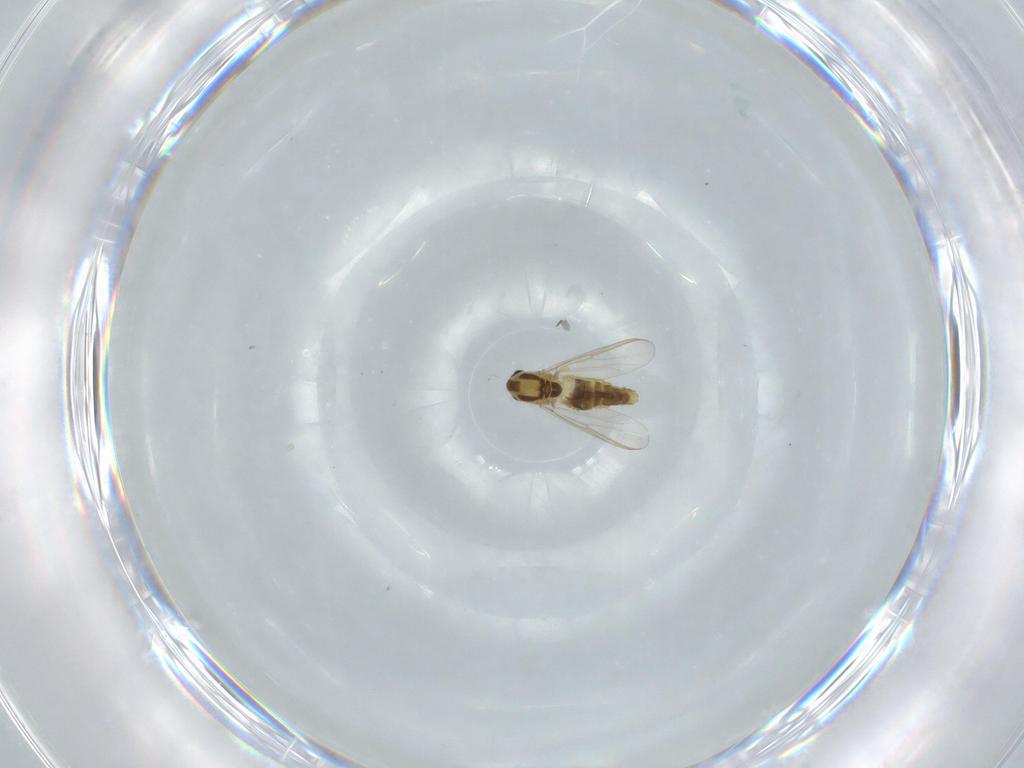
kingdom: Animalia
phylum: Arthropoda
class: Insecta
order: Diptera
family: Chironomidae
